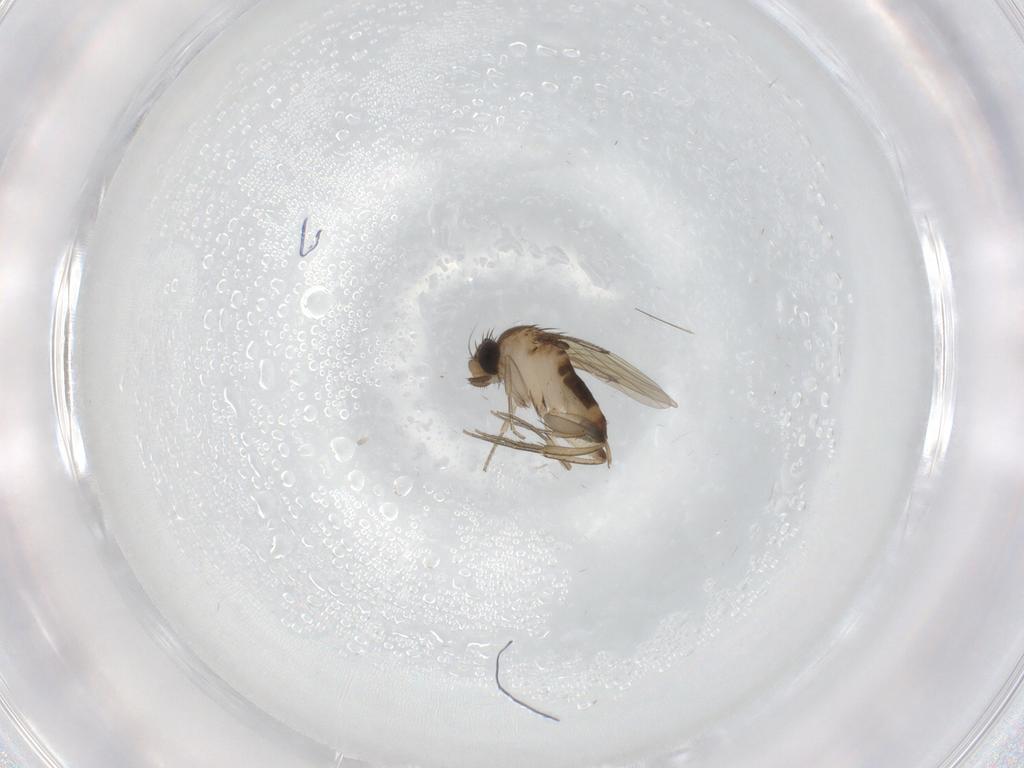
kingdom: Animalia
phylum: Arthropoda
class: Insecta
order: Diptera
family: Phoridae
